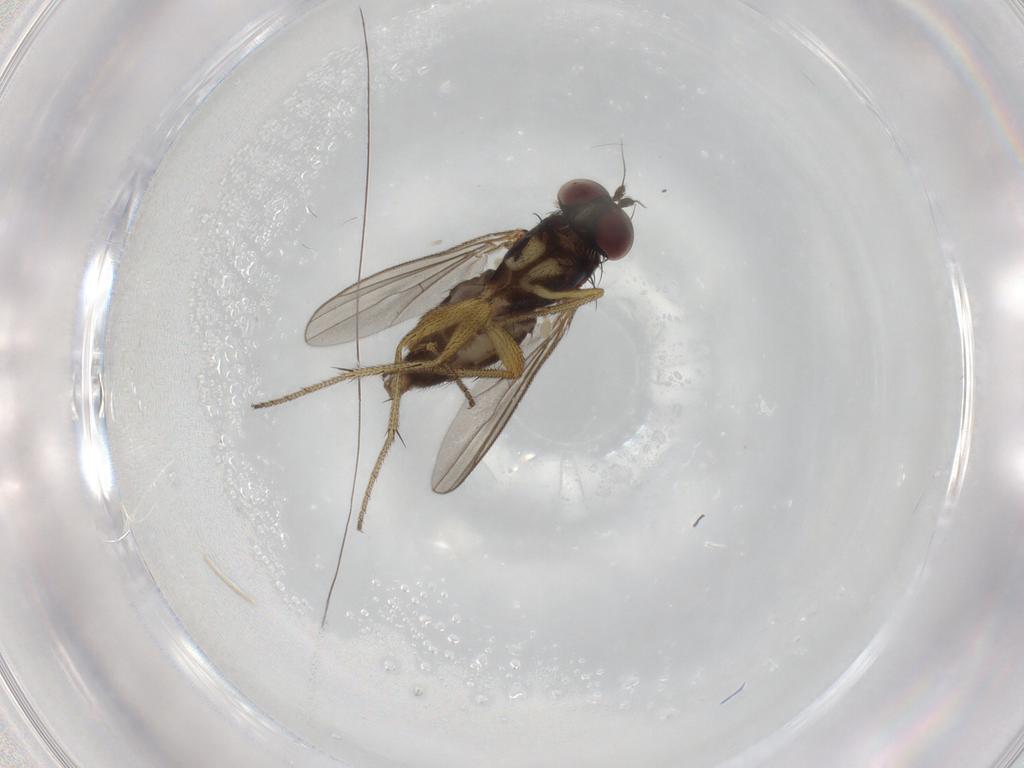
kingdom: Animalia
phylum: Arthropoda
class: Insecta
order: Diptera
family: Dolichopodidae
